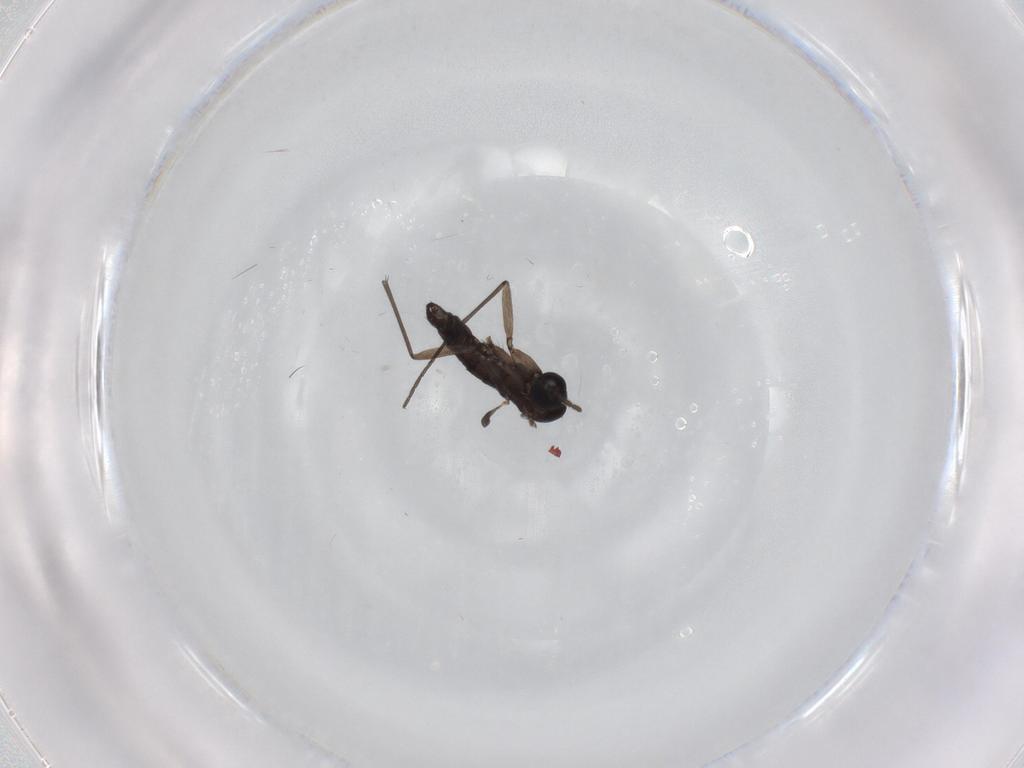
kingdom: Animalia
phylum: Arthropoda
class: Insecta
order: Diptera
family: Sciaridae
